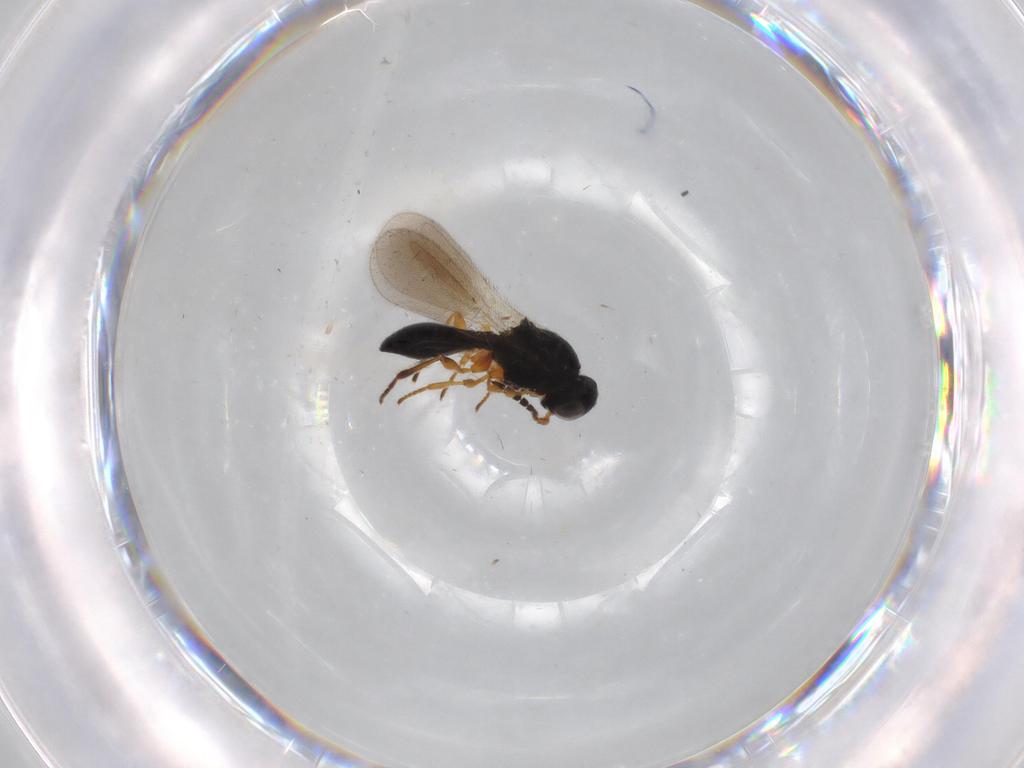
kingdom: Animalia
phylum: Arthropoda
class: Insecta
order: Hymenoptera
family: Platygastridae
